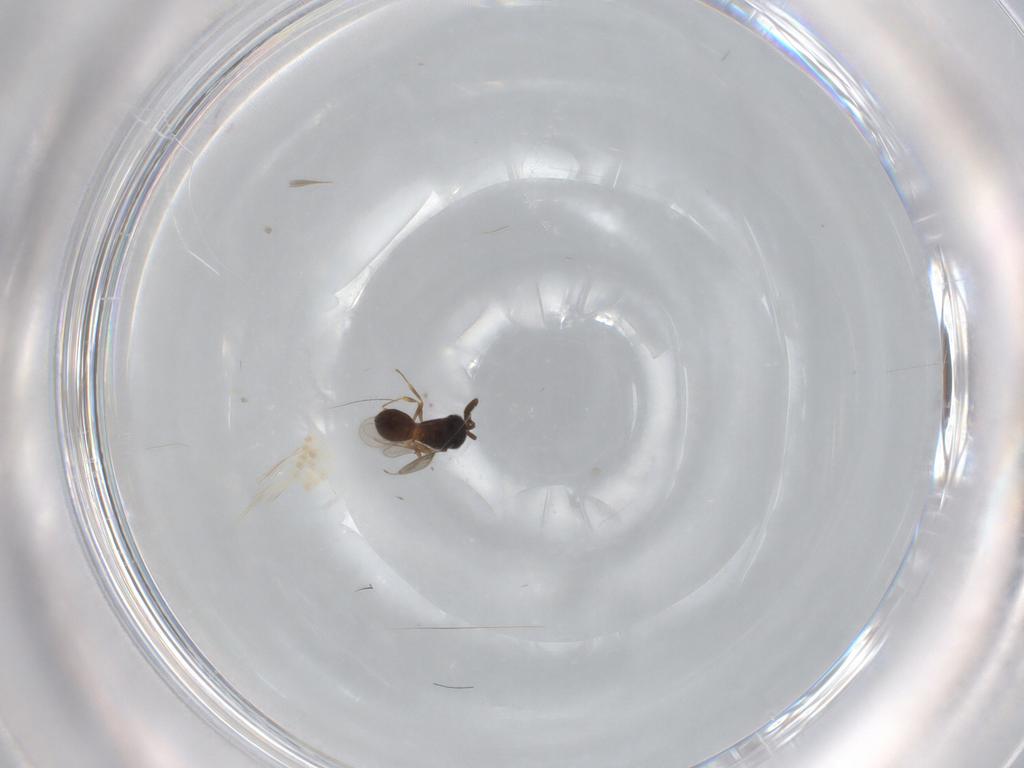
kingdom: Animalia
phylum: Arthropoda
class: Insecta
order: Hymenoptera
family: Scelionidae
